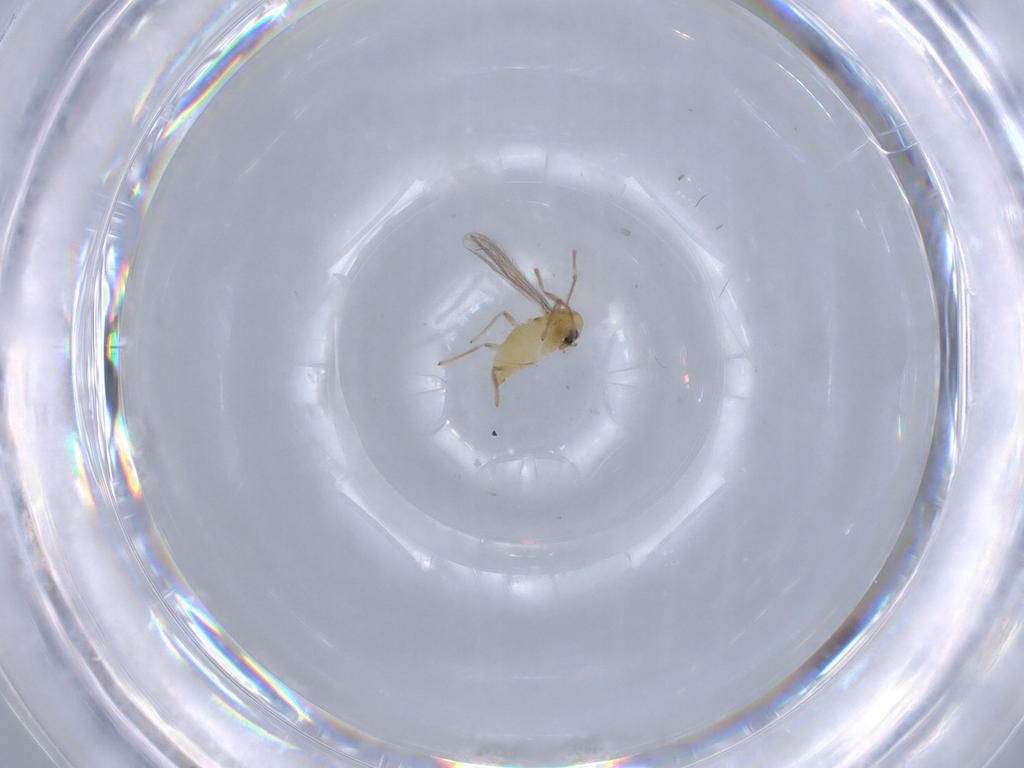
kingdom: Animalia
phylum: Arthropoda
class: Insecta
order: Diptera
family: Chironomidae
